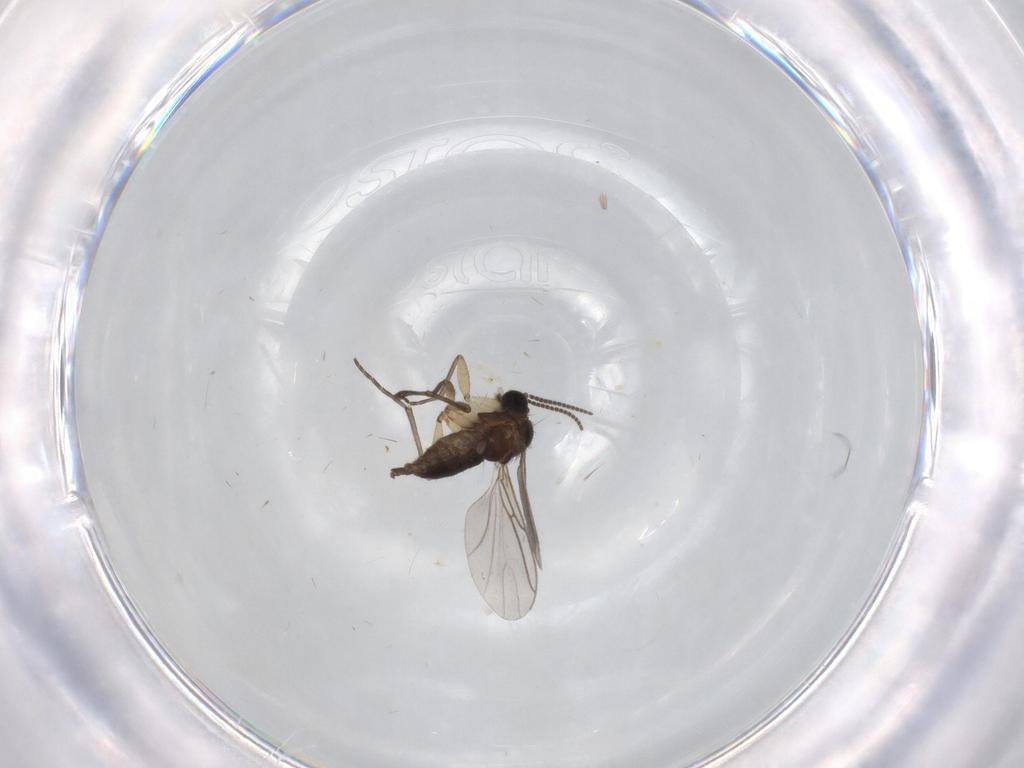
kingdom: Animalia
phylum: Arthropoda
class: Insecta
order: Diptera
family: Sciaridae
